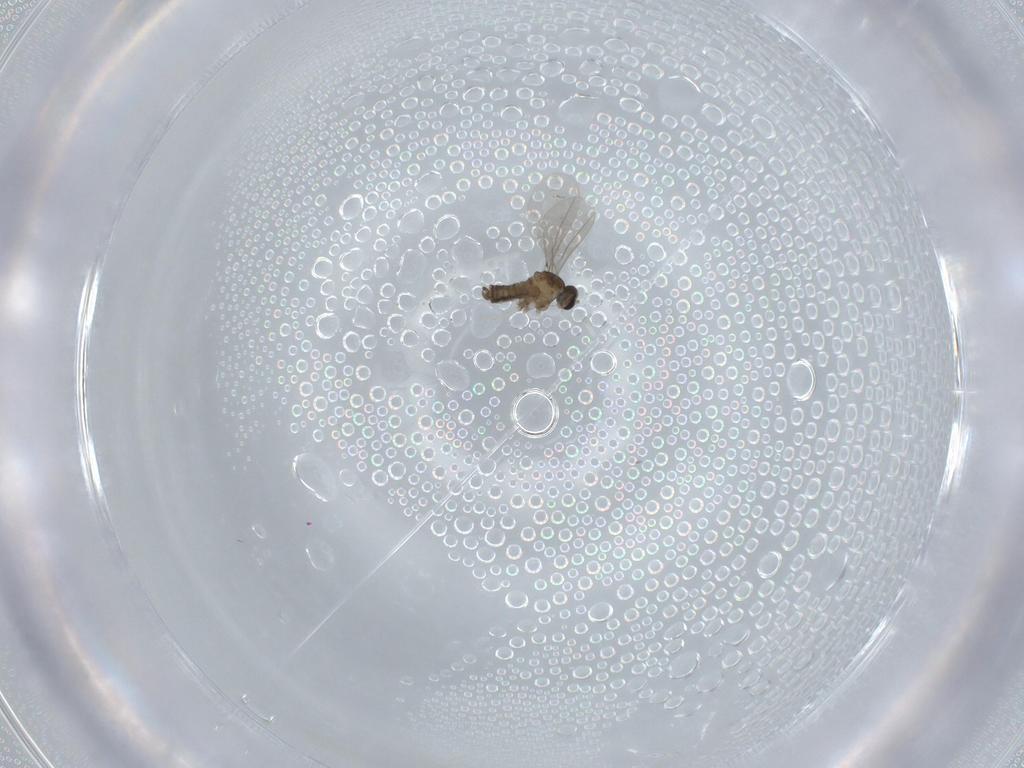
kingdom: Animalia
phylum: Arthropoda
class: Insecta
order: Diptera
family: Cecidomyiidae
